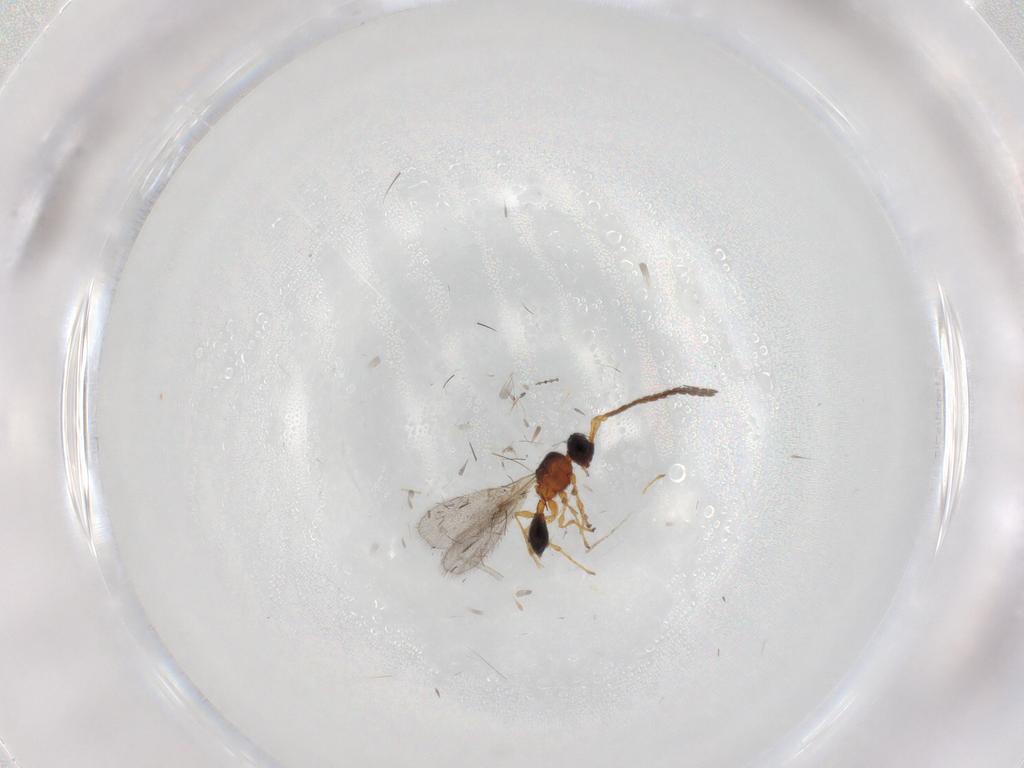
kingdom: Animalia
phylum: Arthropoda
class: Insecta
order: Hymenoptera
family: Diapriidae
